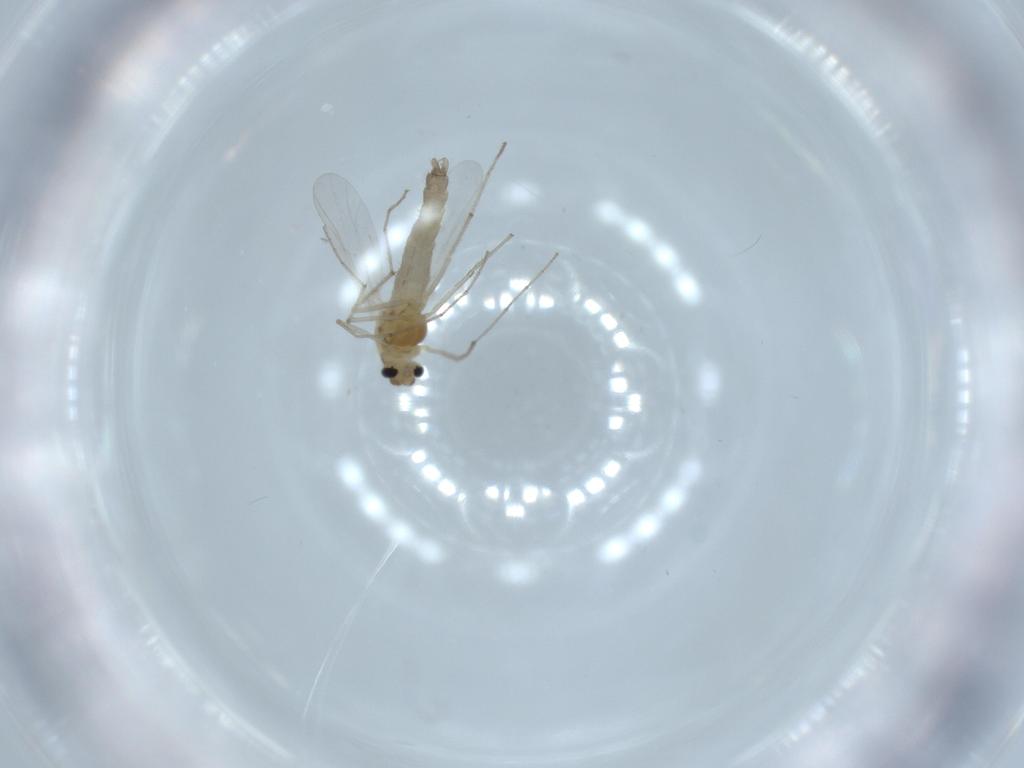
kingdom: Animalia
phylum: Arthropoda
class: Insecta
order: Diptera
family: Chironomidae
